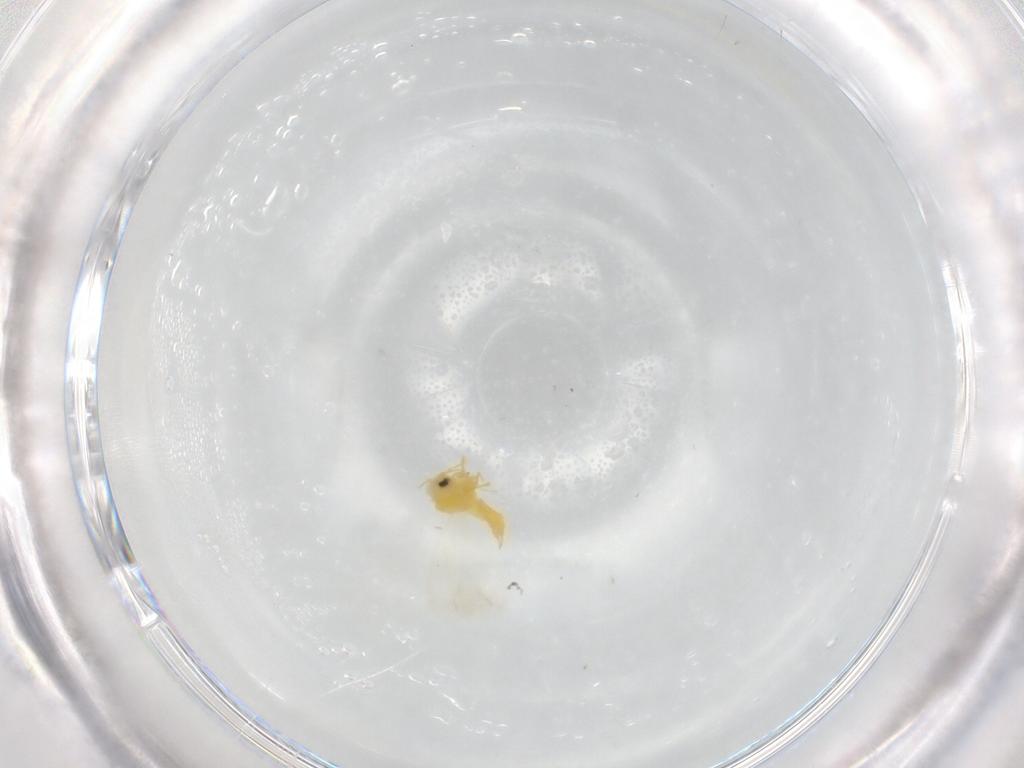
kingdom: Animalia
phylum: Arthropoda
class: Insecta
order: Hemiptera
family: Aleyrodidae
